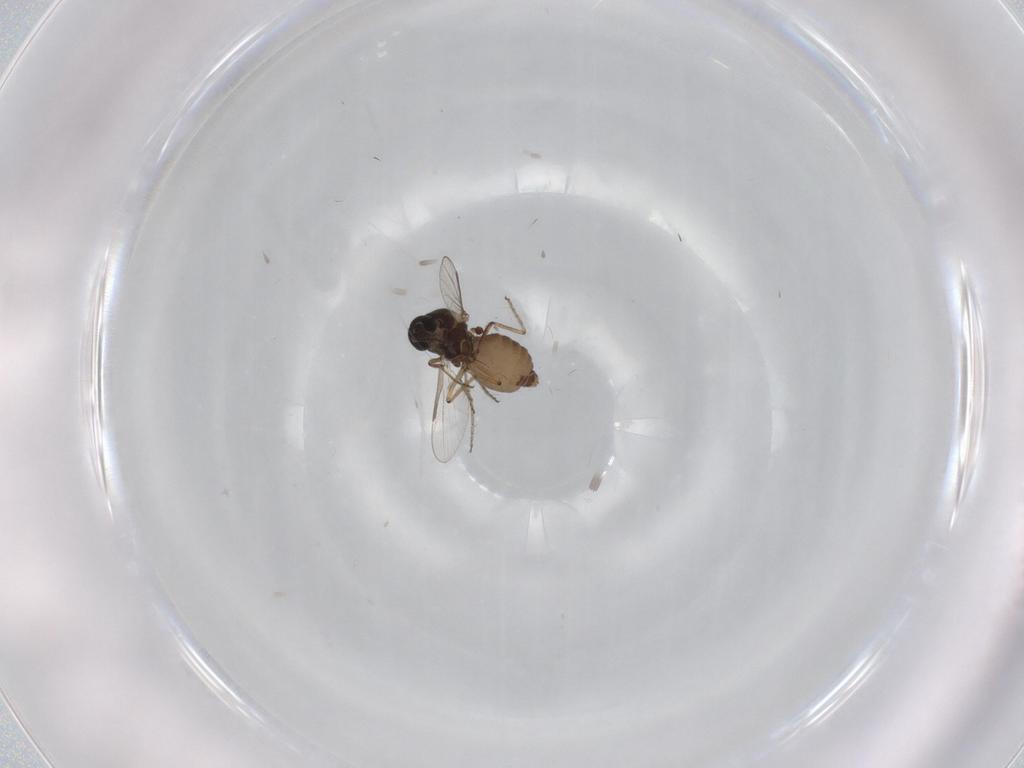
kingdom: Animalia
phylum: Arthropoda
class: Insecta
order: Diptera
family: Ceratopogonidae
